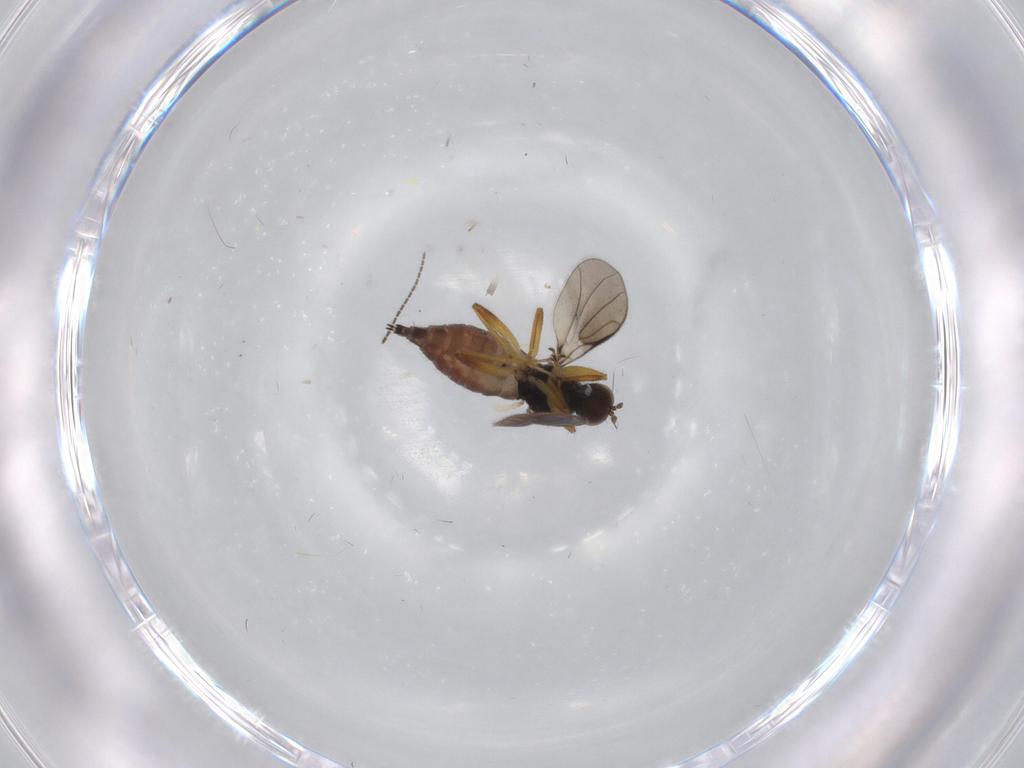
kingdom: Animalia
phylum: Arthropoda
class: Insecta
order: Diptera
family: Hybotidae
